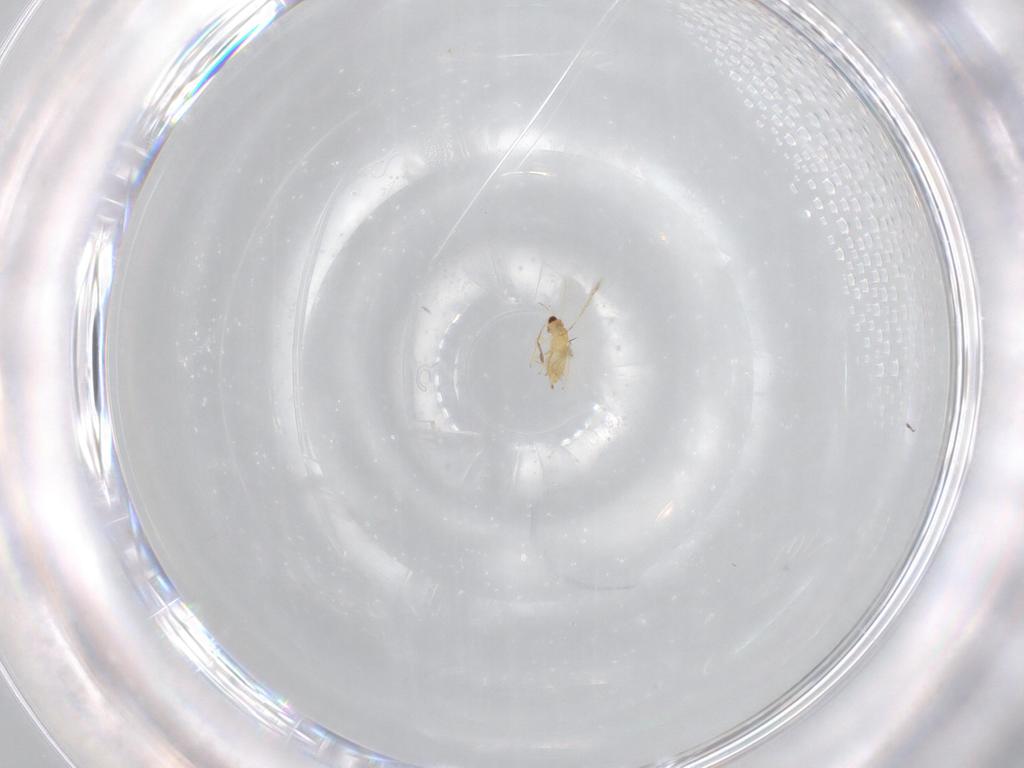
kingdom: Animalia
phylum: Arthropoda
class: Insecta
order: Hymenoptera
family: Mymaridae
